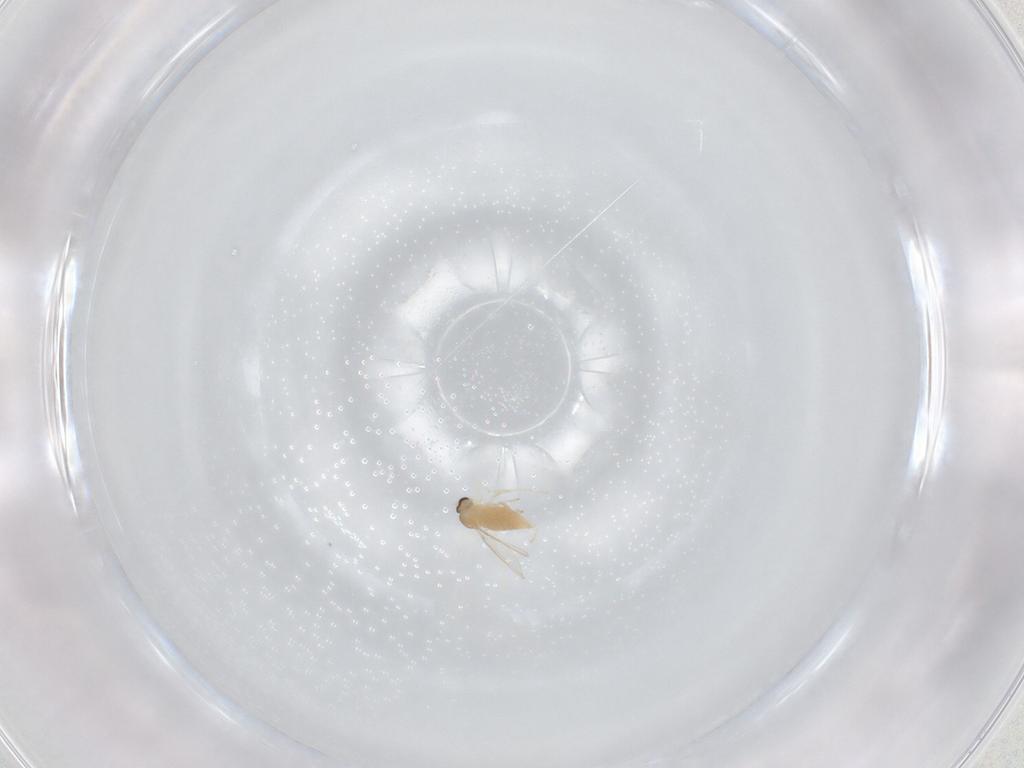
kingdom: Animalia
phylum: Arthropoda
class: Insecta
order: Diptera
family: Cecidomyiidae
